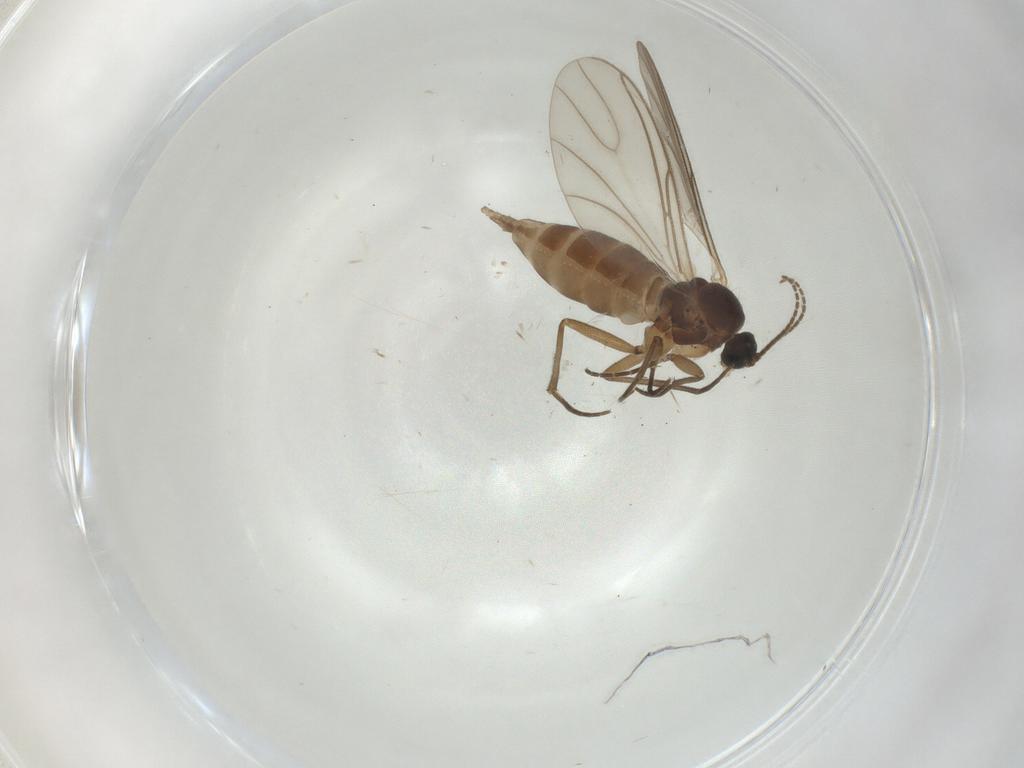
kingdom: Animalia
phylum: Arthropoda
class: Insecta
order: Diptera
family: Sciaridae
